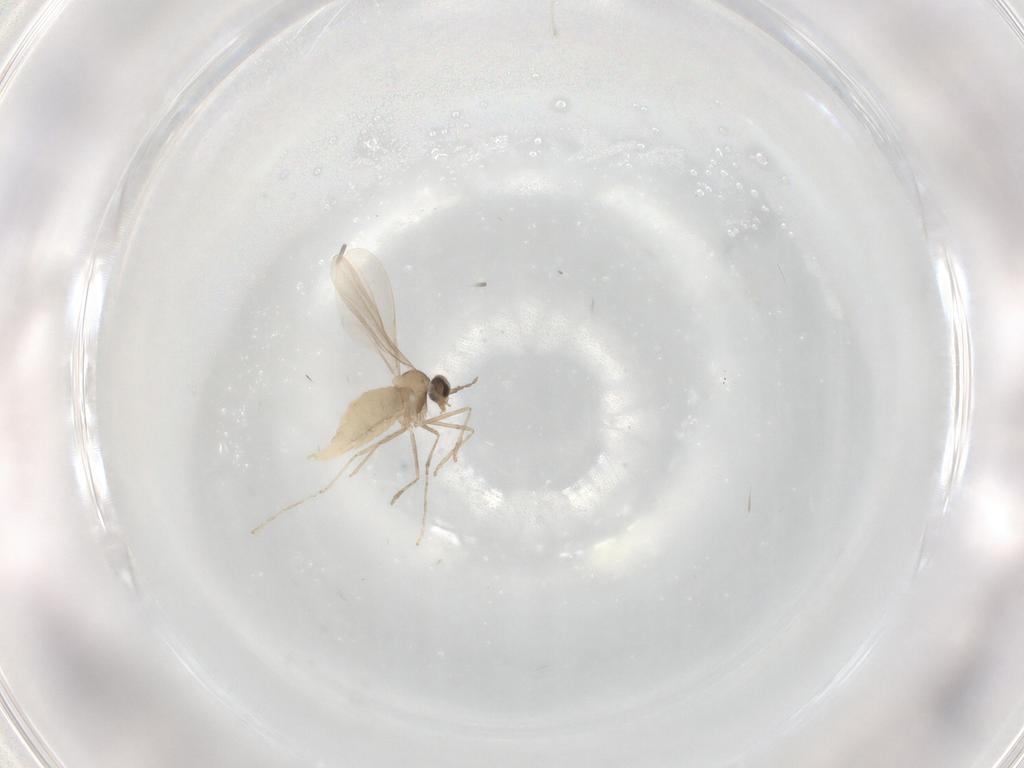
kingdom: Animalia
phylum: Arthropoda
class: Insecta
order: Diptera
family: Cecidomyiidae
